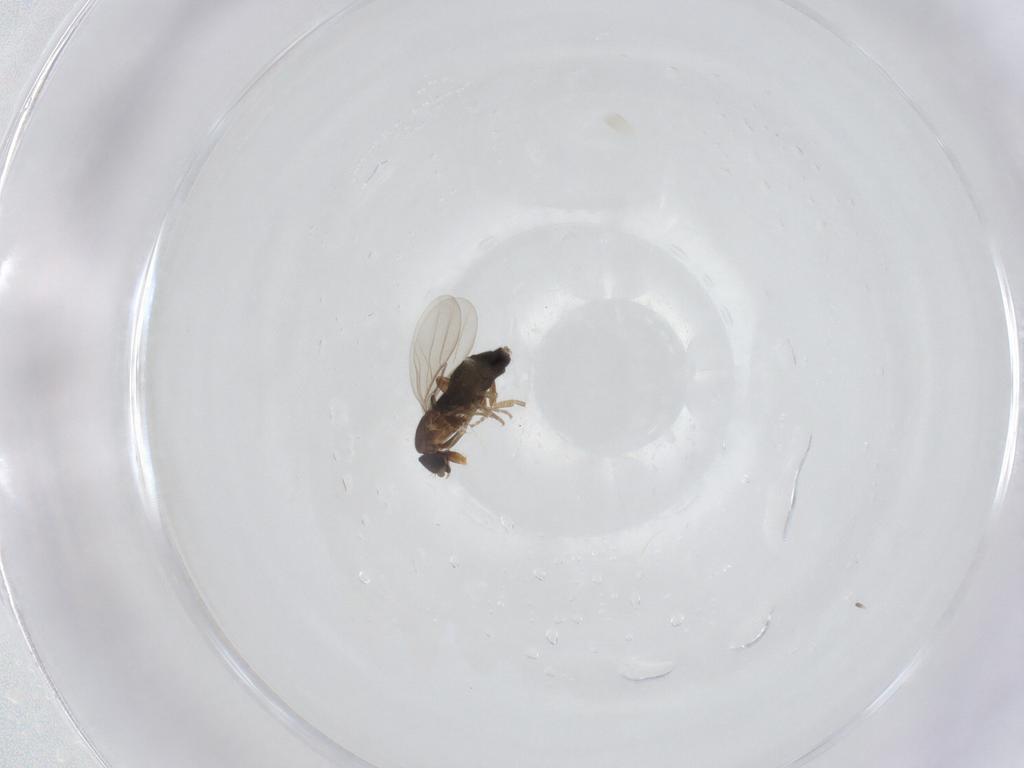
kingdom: Animalia
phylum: Arthropoda
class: Insecta
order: Diptera
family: Phoridae
